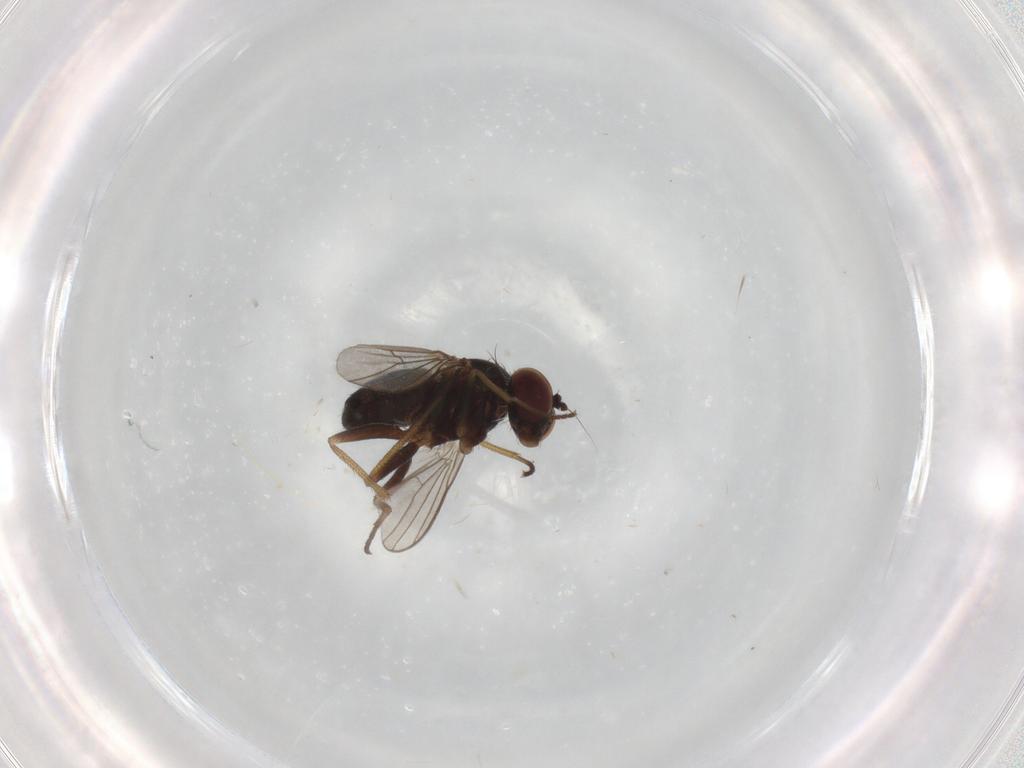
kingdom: Animalia
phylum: Arthropoda
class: Insecta
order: Diptera
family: Dolichopodidae
